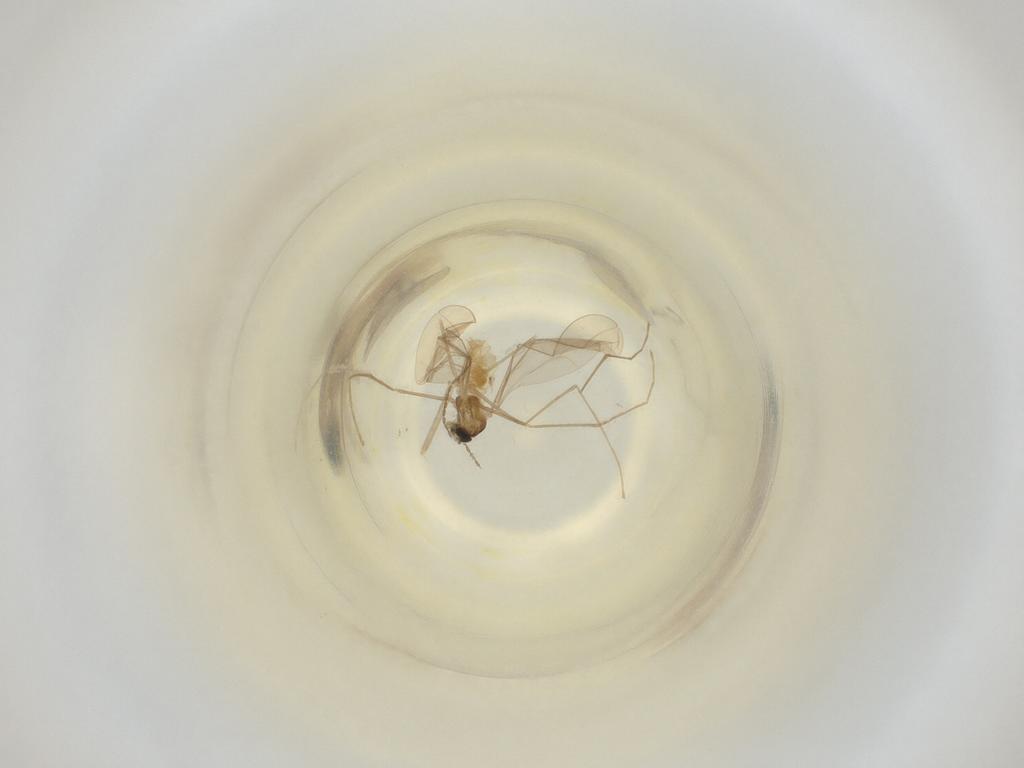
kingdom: Animalia
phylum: Arthropoda
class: Insecta
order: Diptera
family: Cecidomyiidae
